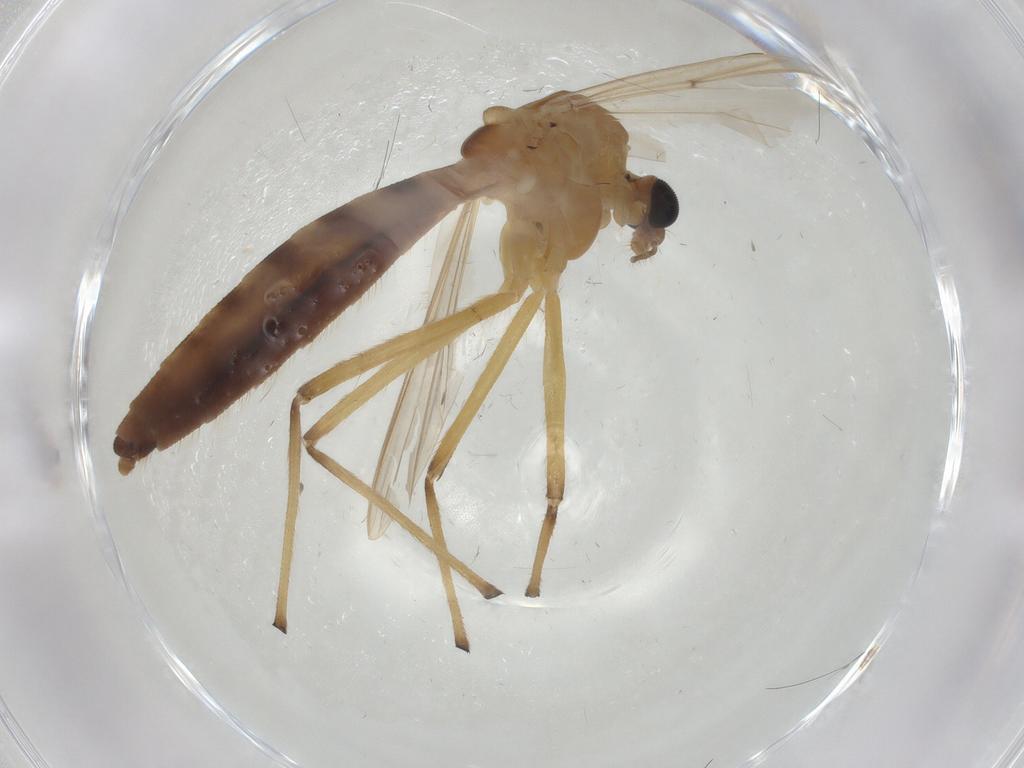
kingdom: Animalia
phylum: Arthropoda
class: Insecta
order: Diptera
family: Chironomidae
